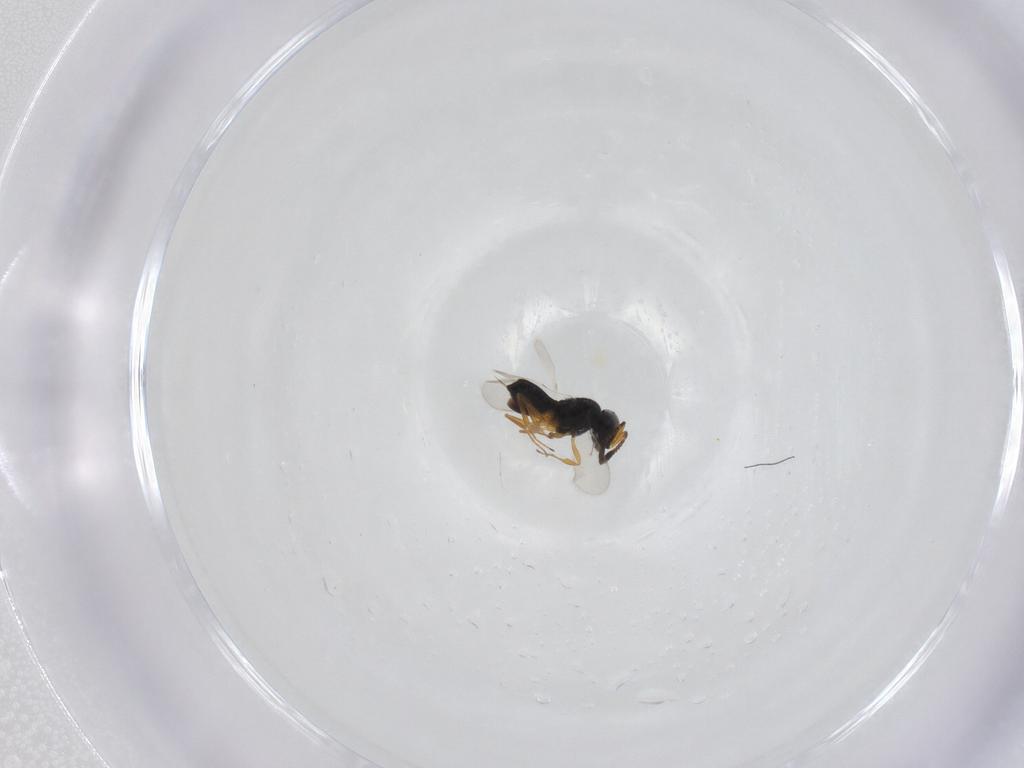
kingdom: Animalia
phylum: Arthropoda
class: Insecta
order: Hymenoptera
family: Scelionidae
